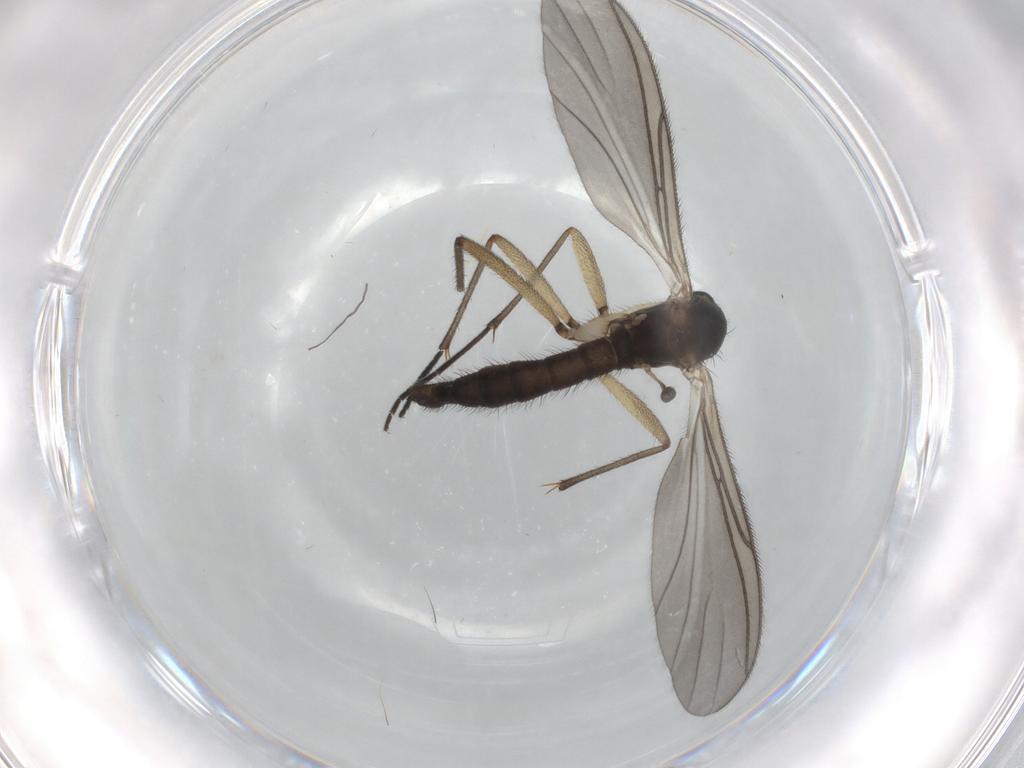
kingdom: Animalia
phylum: Arthropoda
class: Insecta
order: Diptera
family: Sciaridae
